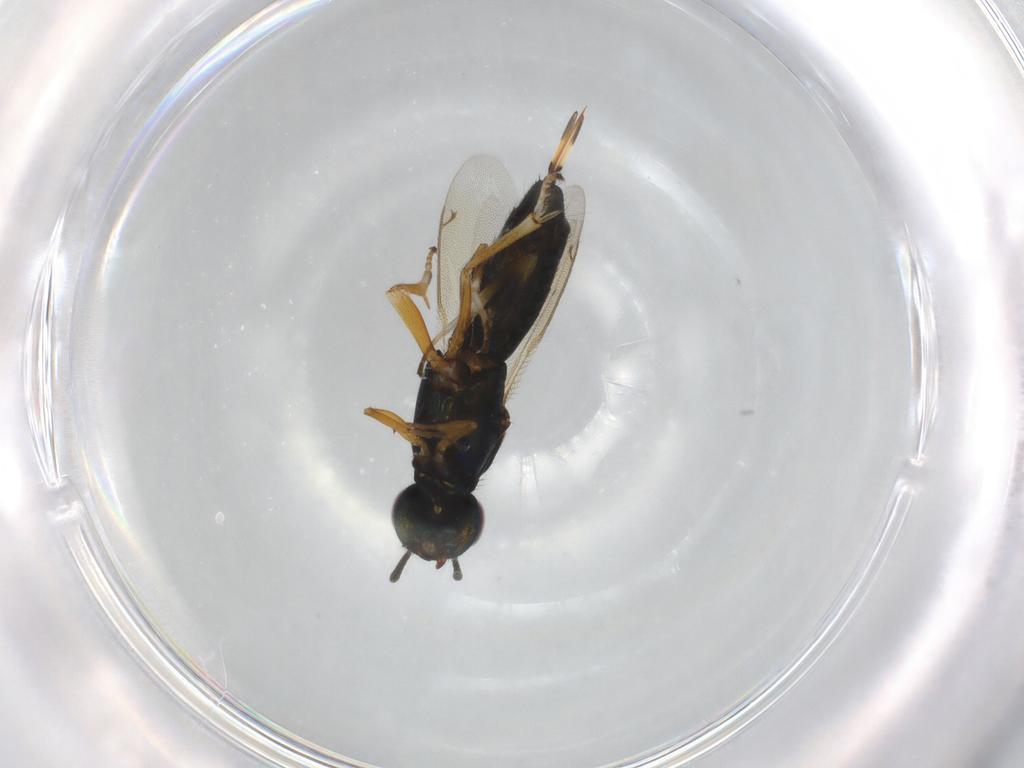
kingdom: Animalia
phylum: Arthropoda
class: Insecta
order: Hymenoptera
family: Eupelmidae
